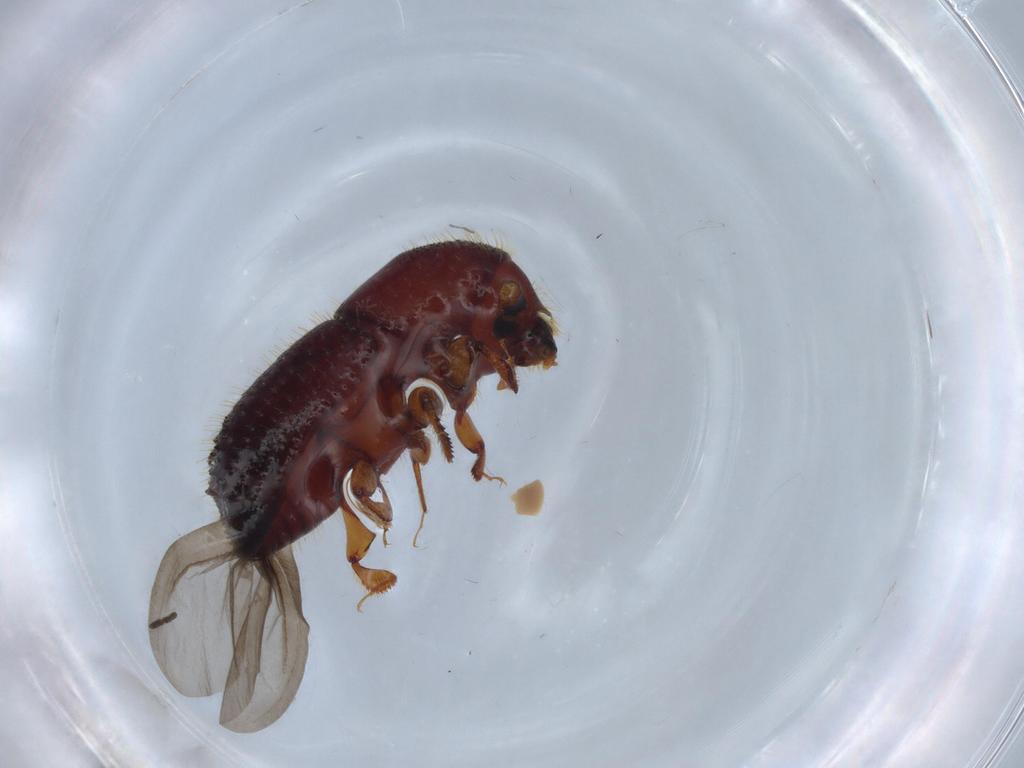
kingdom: Animalia
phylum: Arthropoda
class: Insecta
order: Coleoptera
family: Curculionidae
